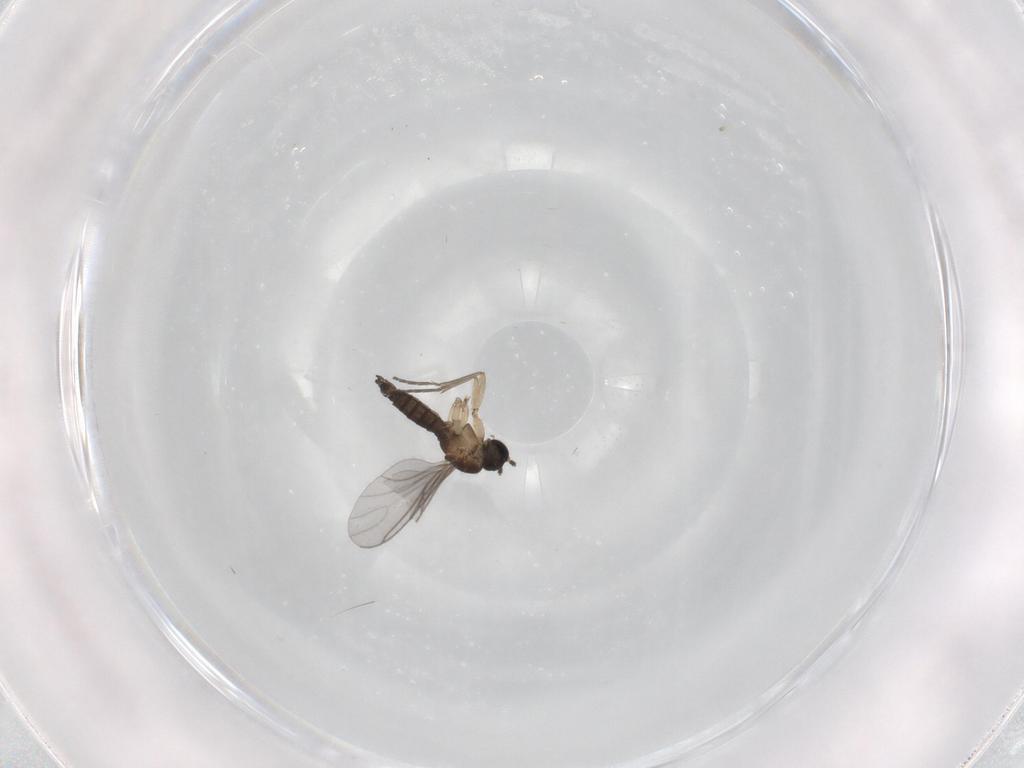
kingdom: Animalia
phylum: Arthropoda
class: Insecta
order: Diptera
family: Sciaridae
